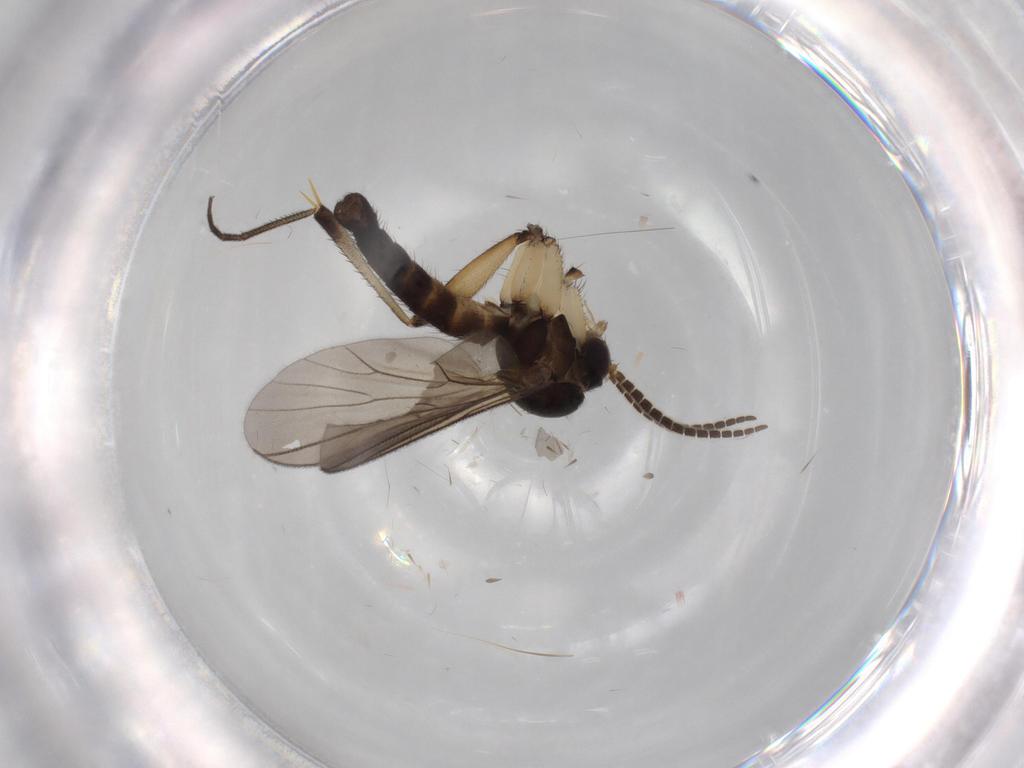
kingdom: Animalia
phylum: Arthropoda
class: Insecta
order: Diptera
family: Mycetophilidae
